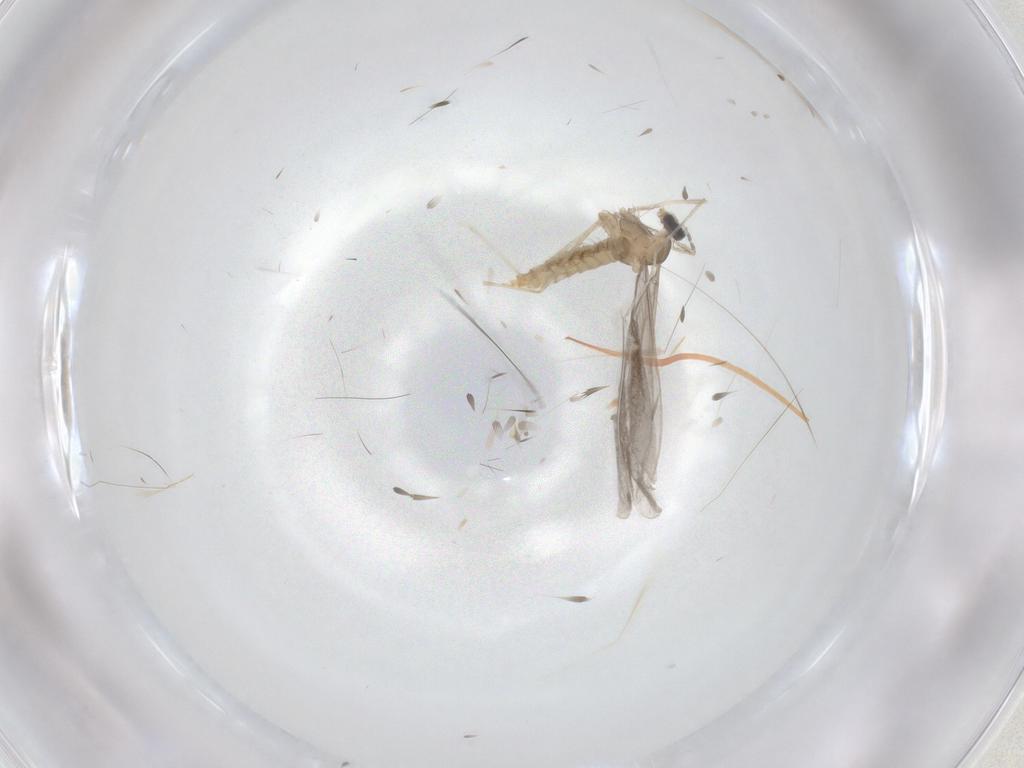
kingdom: Animalia
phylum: Arthropoda
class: Insecta
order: Diptera
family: Cecidomyiidae
